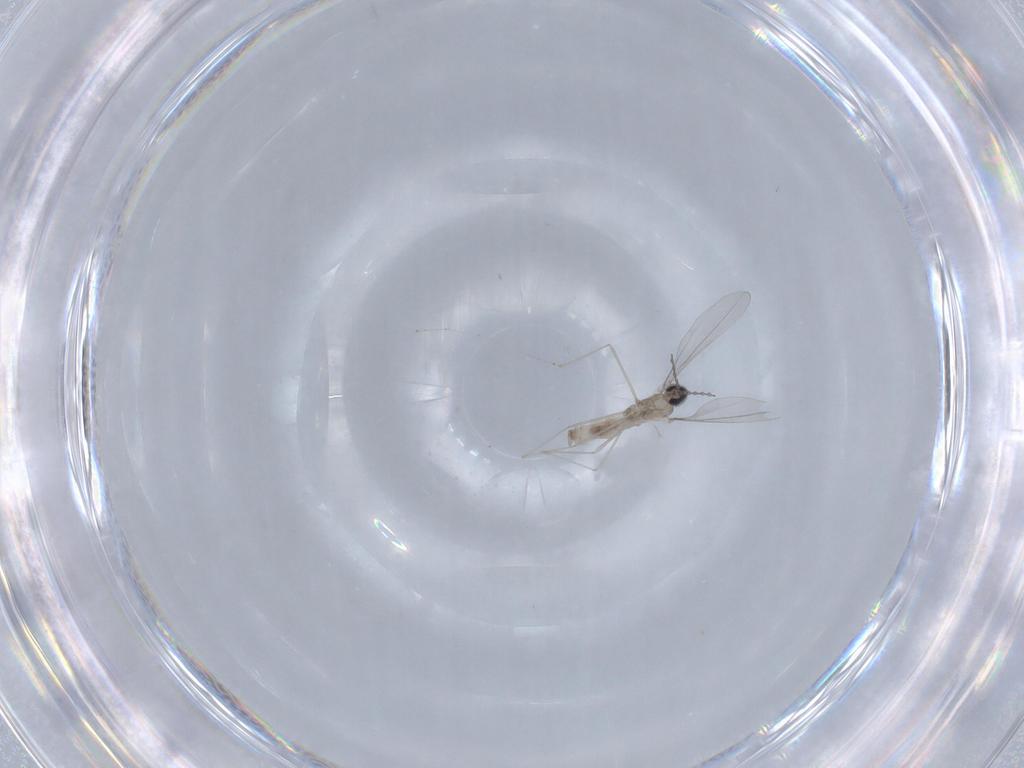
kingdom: Animalia
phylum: Arthropoda
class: Insecta
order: Diptera
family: Cecidomyiidae
